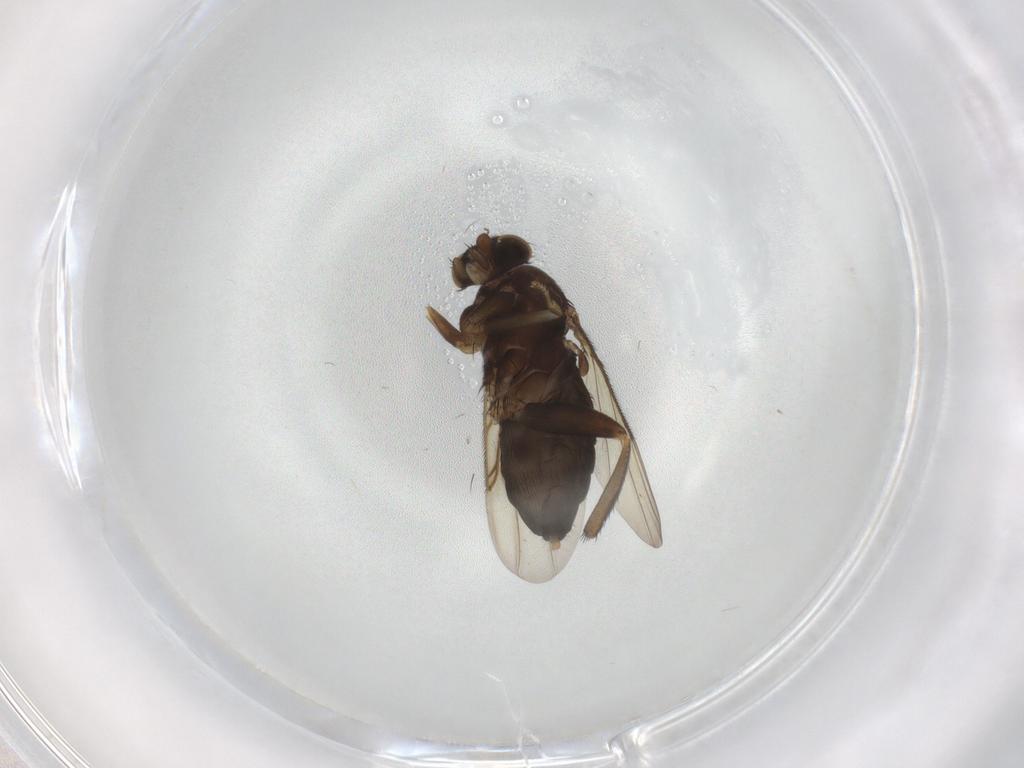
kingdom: Animalia
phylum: Arthropoda
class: Insecta
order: Diptera
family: Phoridae
